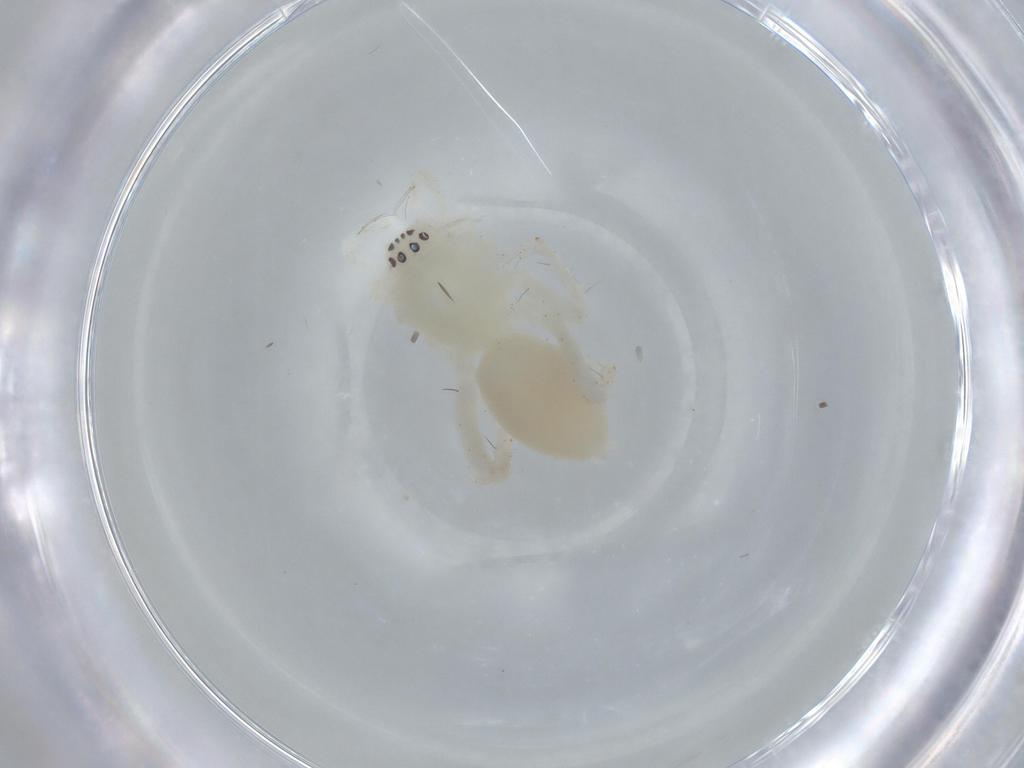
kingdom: Animalia
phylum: Arthropoda
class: Arachnida
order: Araneae
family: Anyphaenidae
